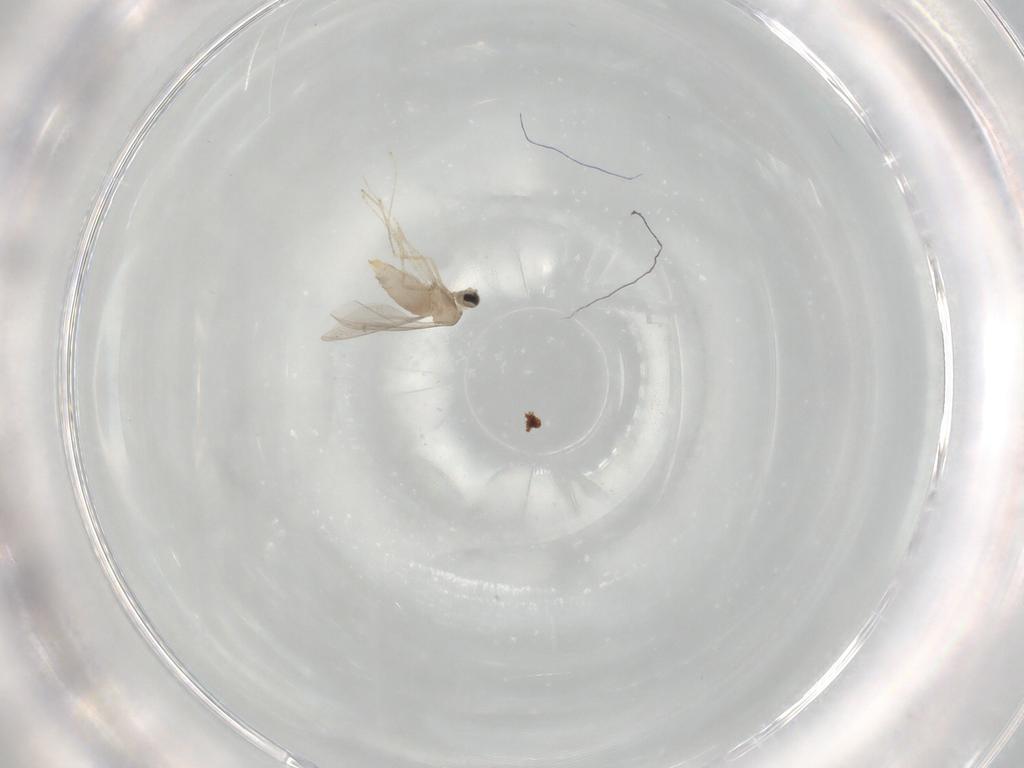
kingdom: Animalia
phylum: Arthropoda
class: Insecta
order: Diptera
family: Cecidomyiidae
